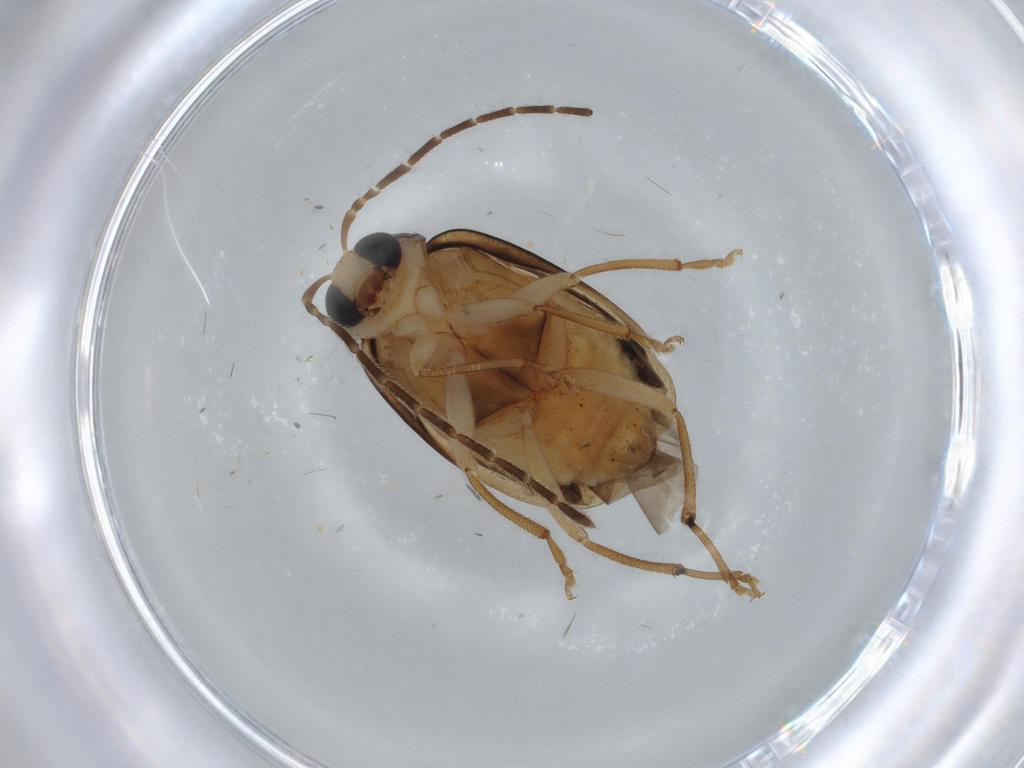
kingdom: Animalia
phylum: Arthropoda
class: Insecta
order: Coleoptera
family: Chrysomelidae
